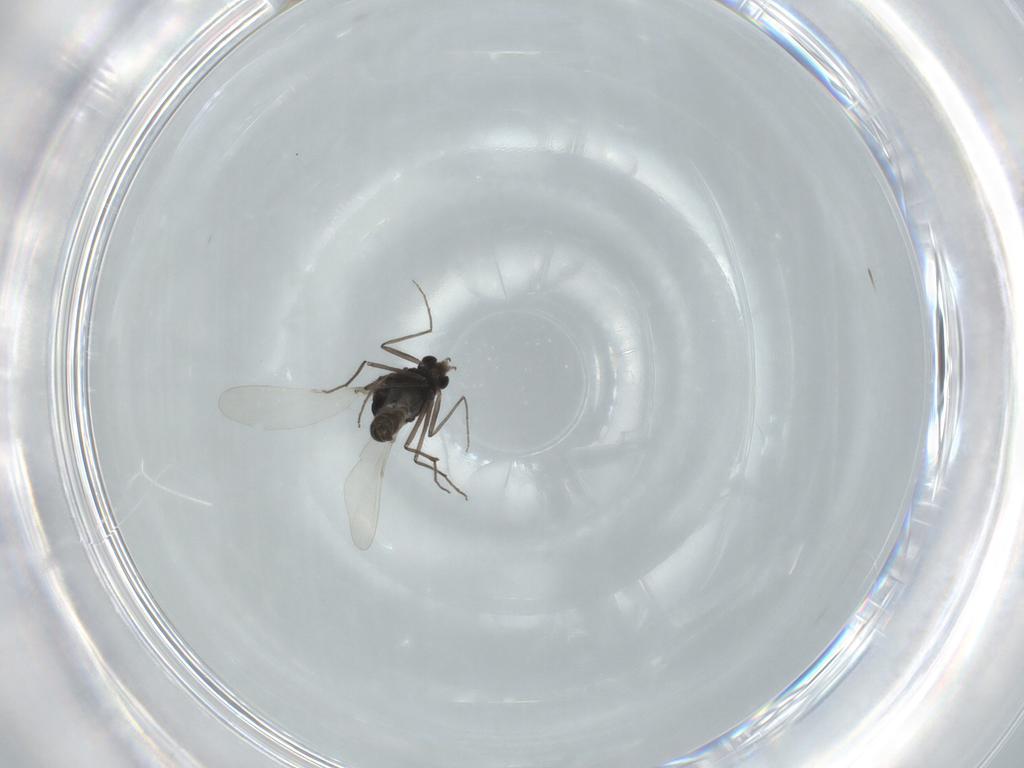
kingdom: Animalia
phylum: Arthropoda
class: Insecta
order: Diptera
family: Chironomidae
